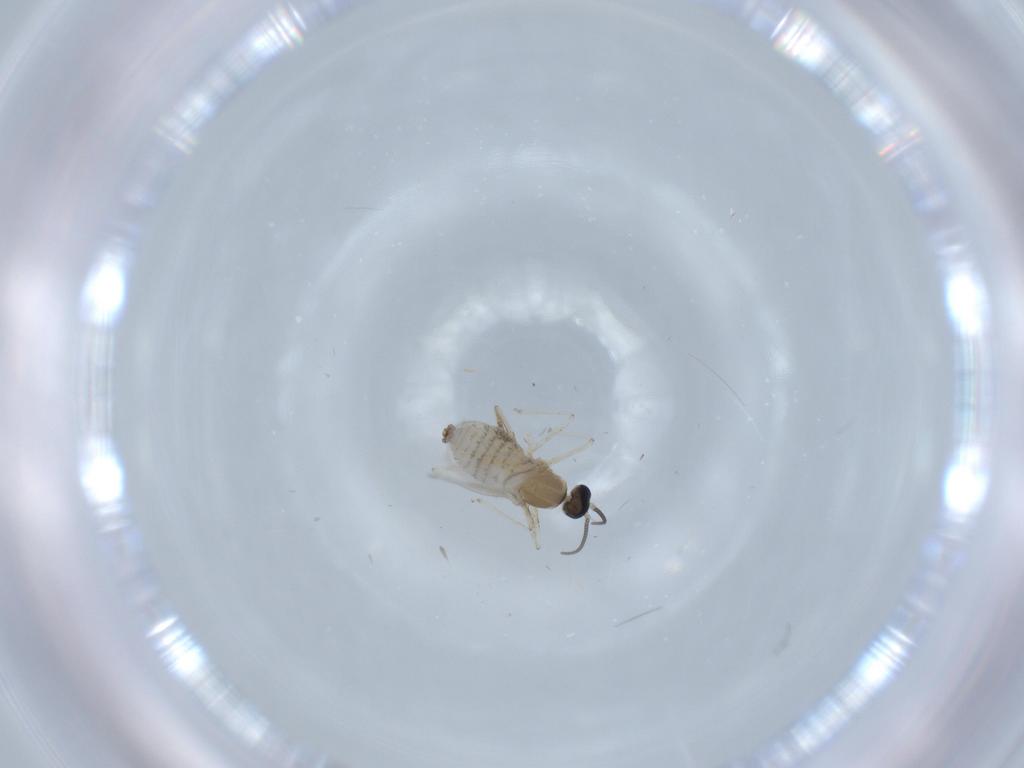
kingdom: Animalia
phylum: Arthropoda
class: Insecta
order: Diptera
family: Cecidomyiidae
